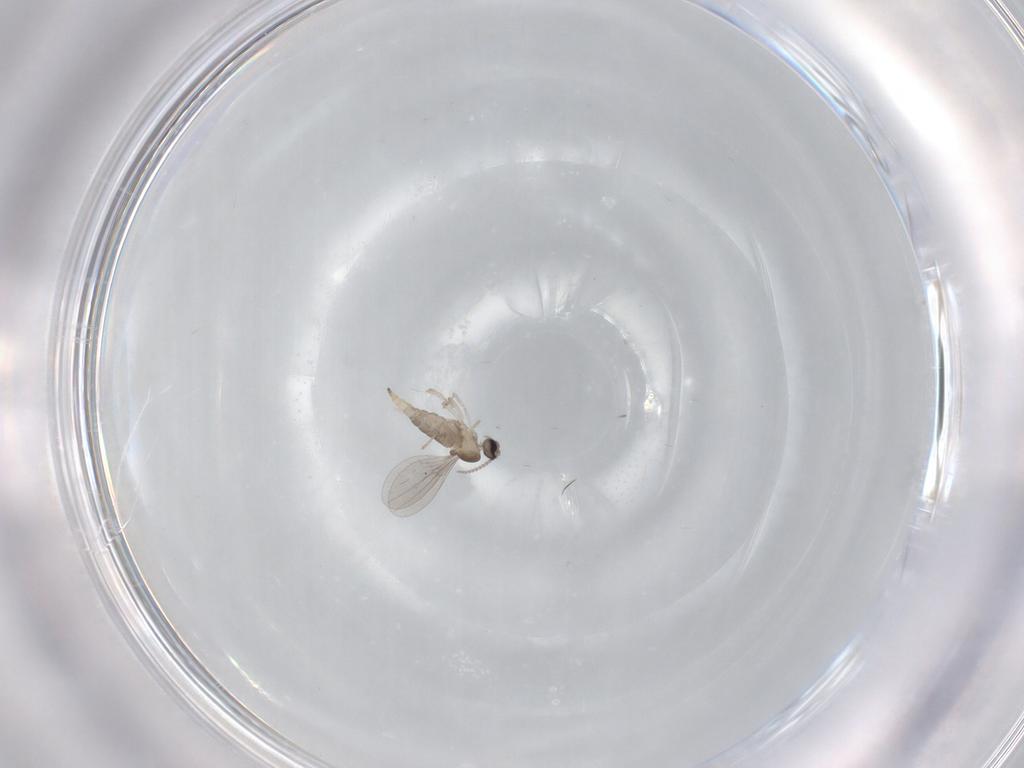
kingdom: Animalia
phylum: Arthropoda
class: Insecta
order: Diptera
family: Cecidomyiidae
